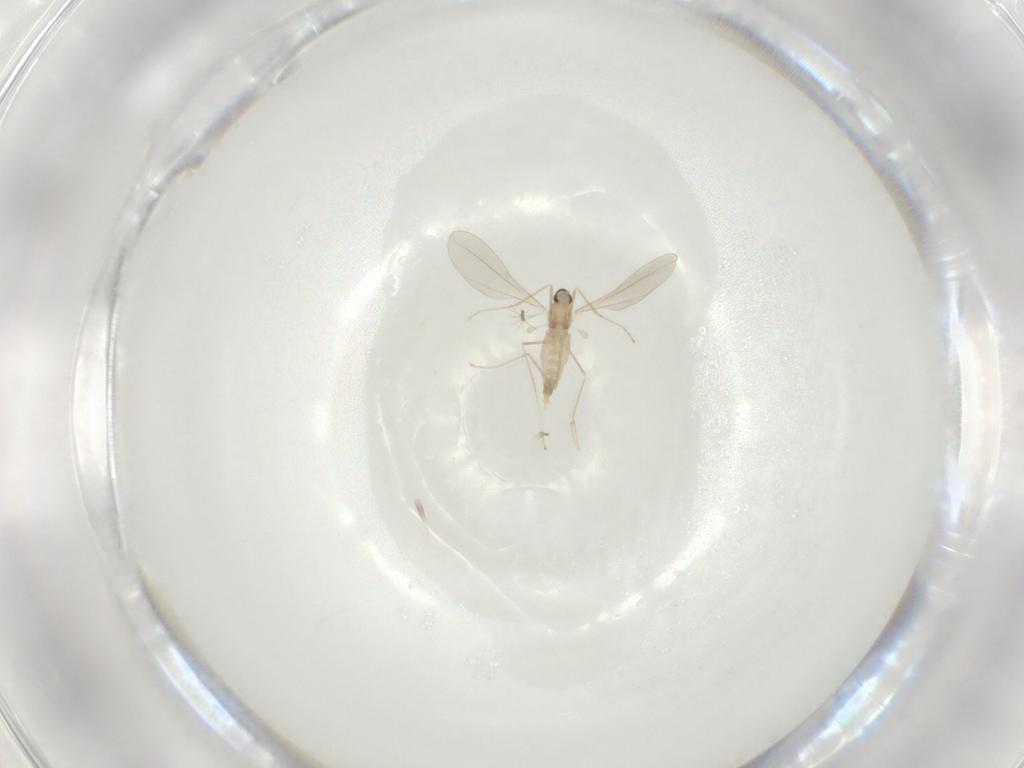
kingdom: Animalia
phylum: Arthropoda
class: Insecta
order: Diptera
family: Cecidomyiidae
